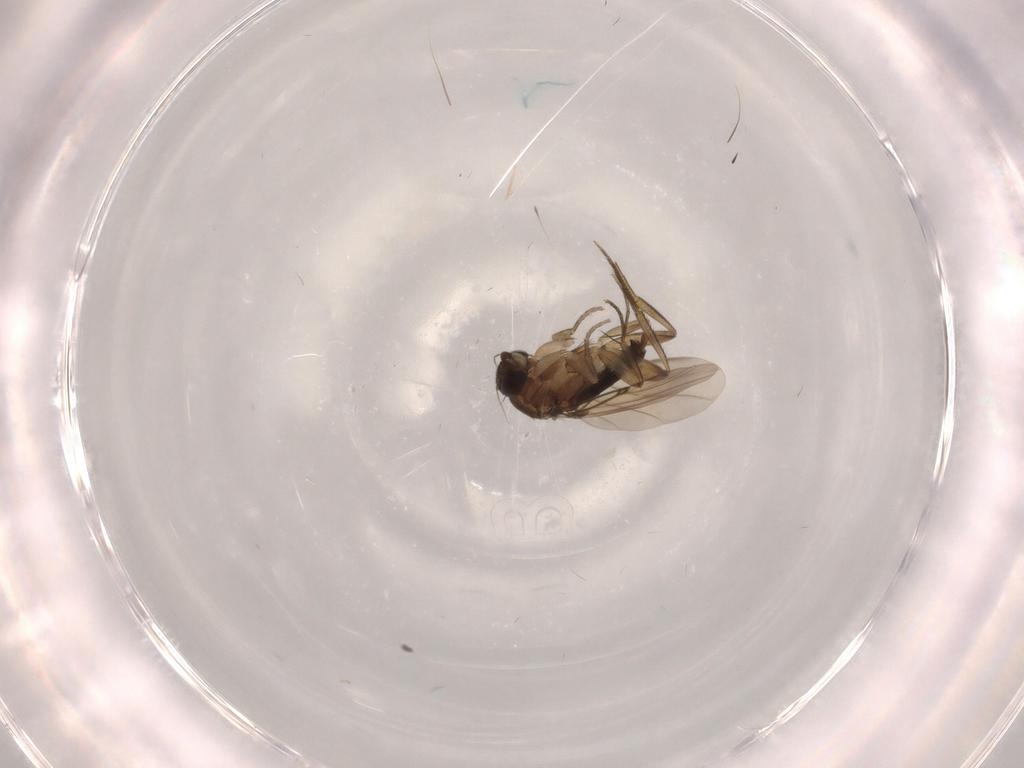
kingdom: Animalia
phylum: Arthropoda
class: Insecta
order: Diptera
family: Phoridae
